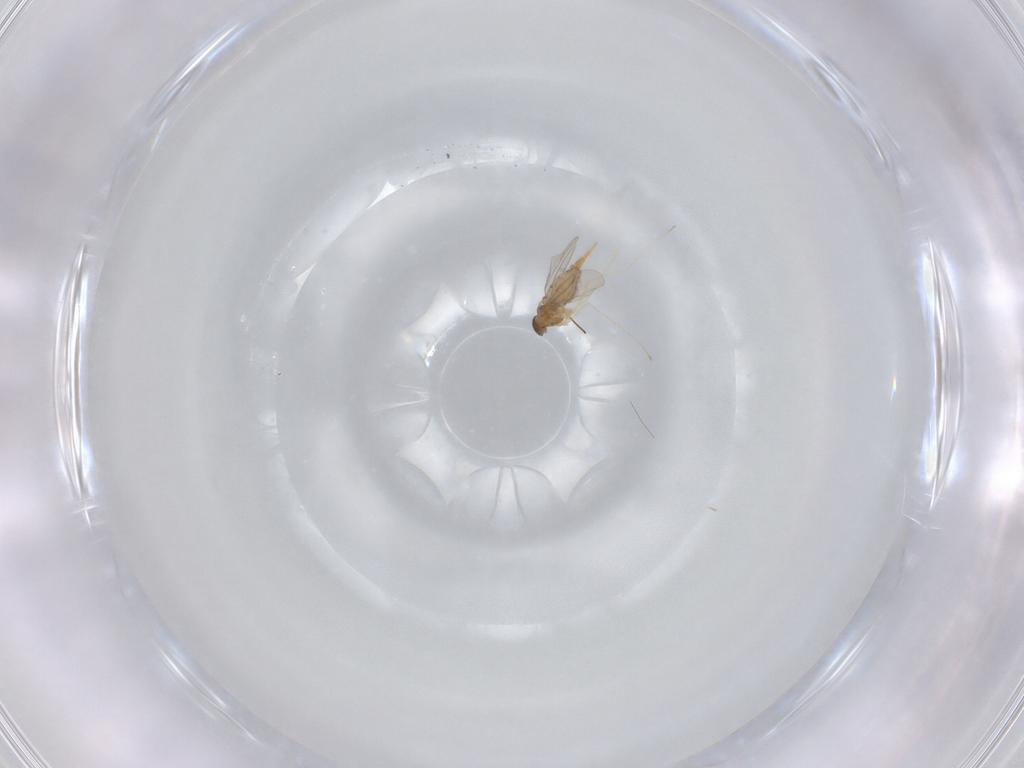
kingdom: Animalia
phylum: Arthropoda
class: Insecta
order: Diptera
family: Cecidomyiidae
